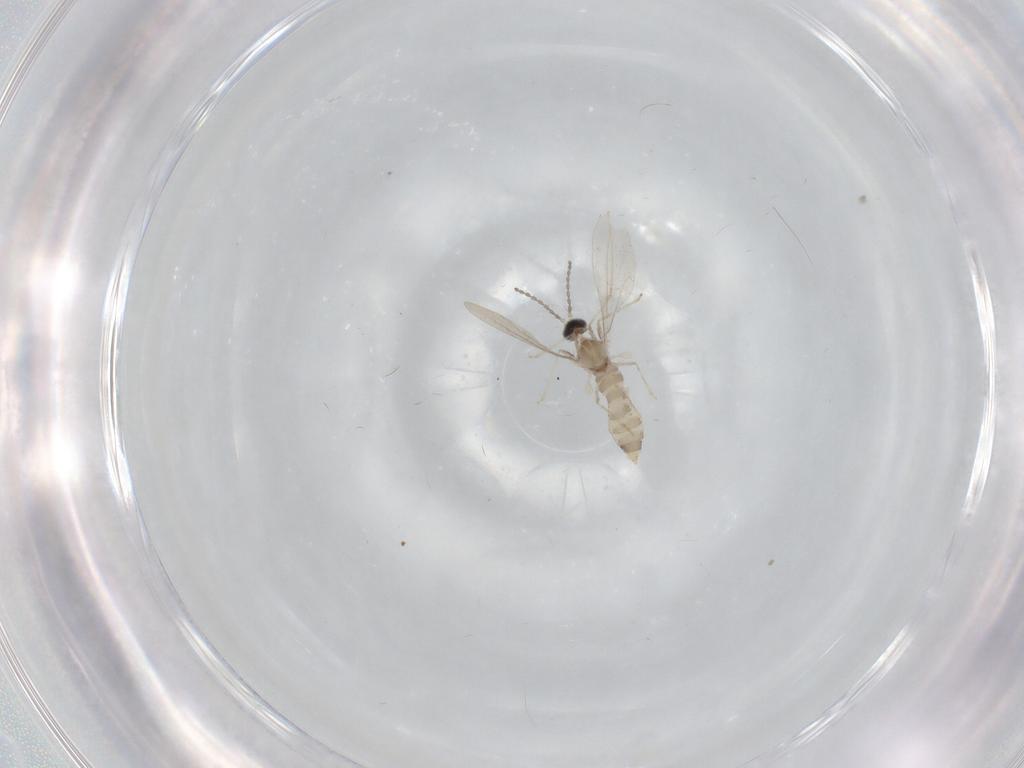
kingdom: Animalia
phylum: Arthropoda
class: Insecta
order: Diptera
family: Cecidomyiidae
